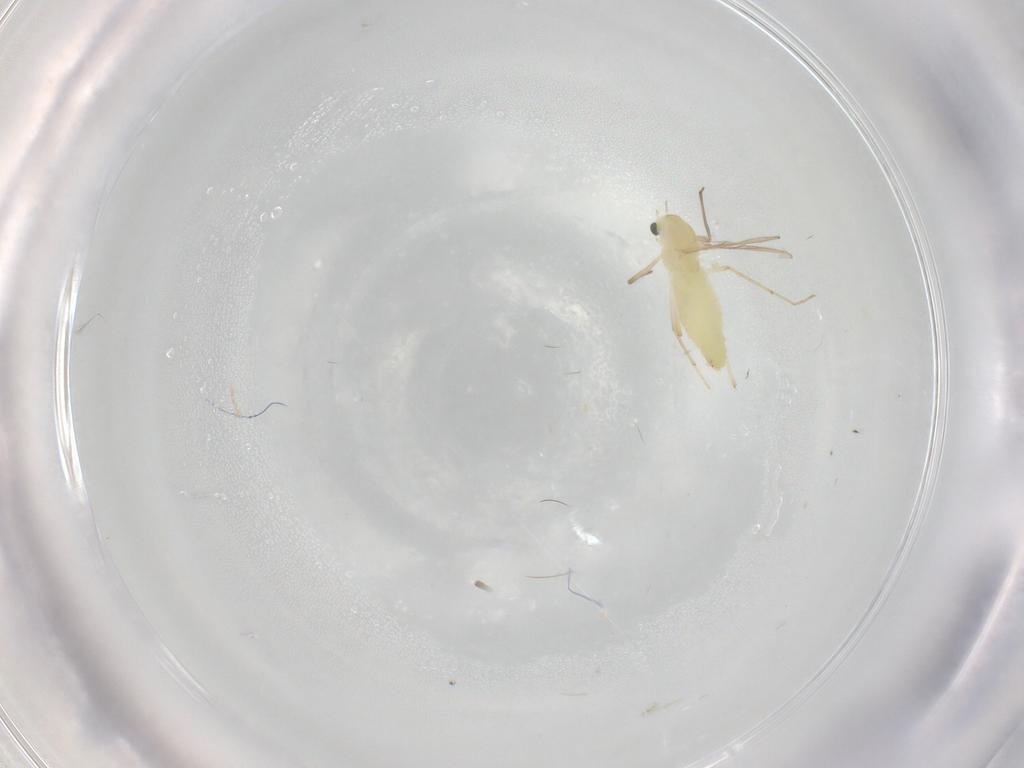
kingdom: Animalia
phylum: Arthropoda
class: Insecta
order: Diptera
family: Chironomidae
